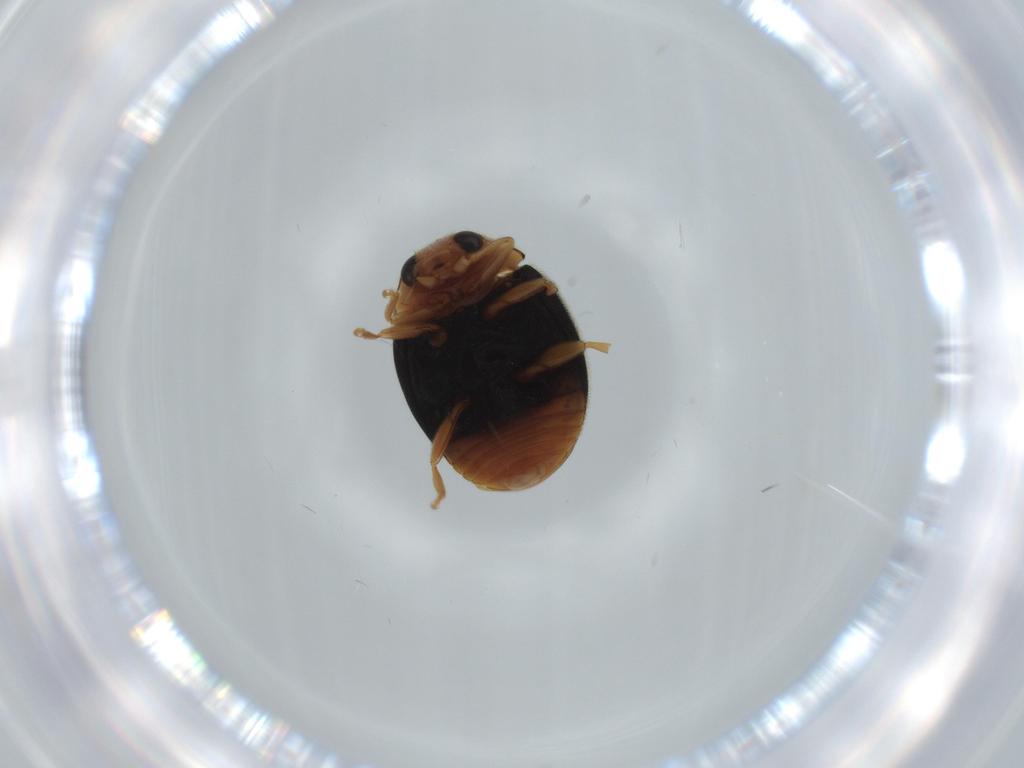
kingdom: Animalia
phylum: Arthropoda
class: Insecta
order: Coleoptera
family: Coccinellidae
